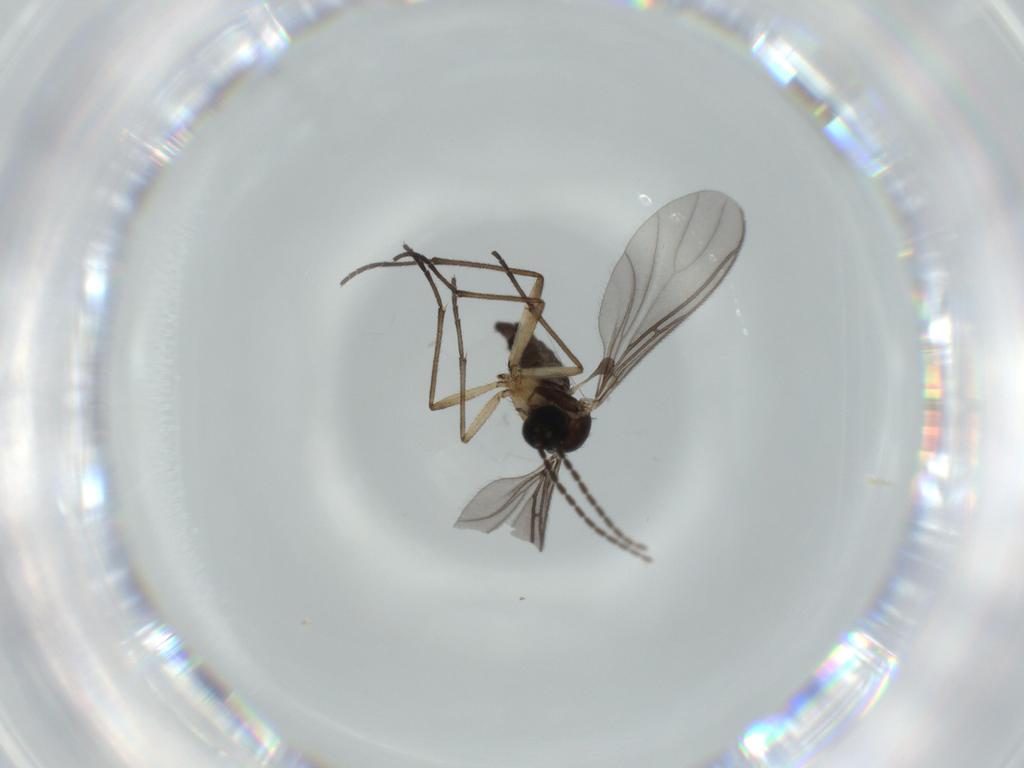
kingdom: Animalia
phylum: Arthropoda
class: Insecta
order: Diptera
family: Sciaridae
